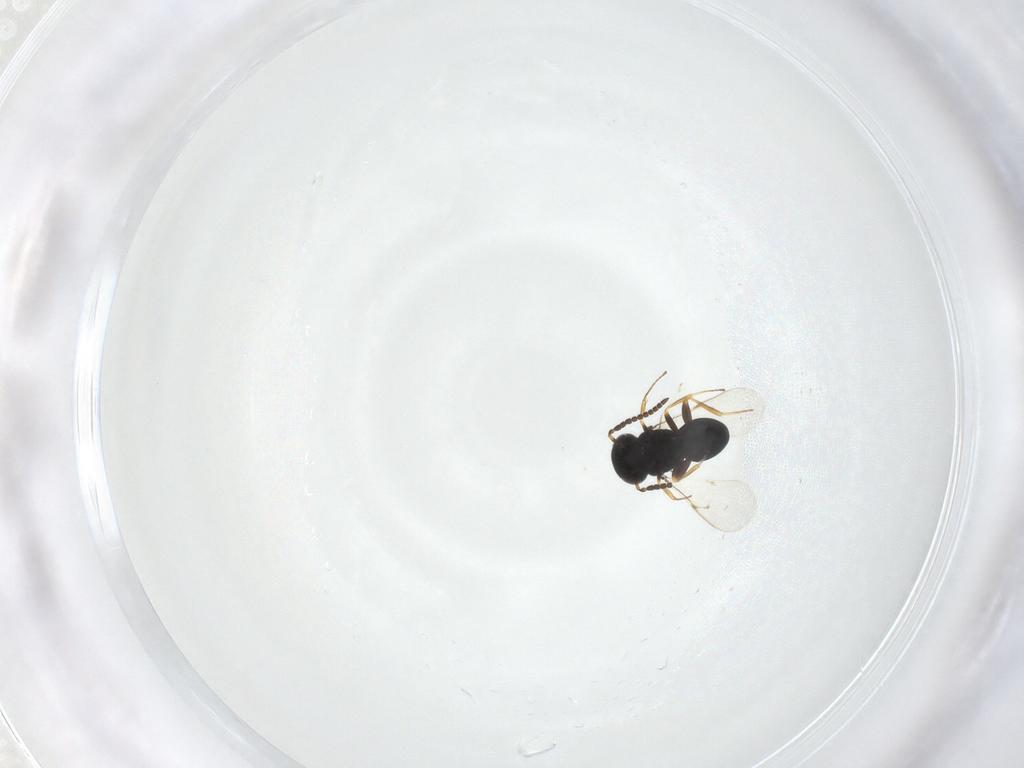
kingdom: Animalia
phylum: Arthropoda
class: Insecta
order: Hymenoptera
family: Scelionidae
